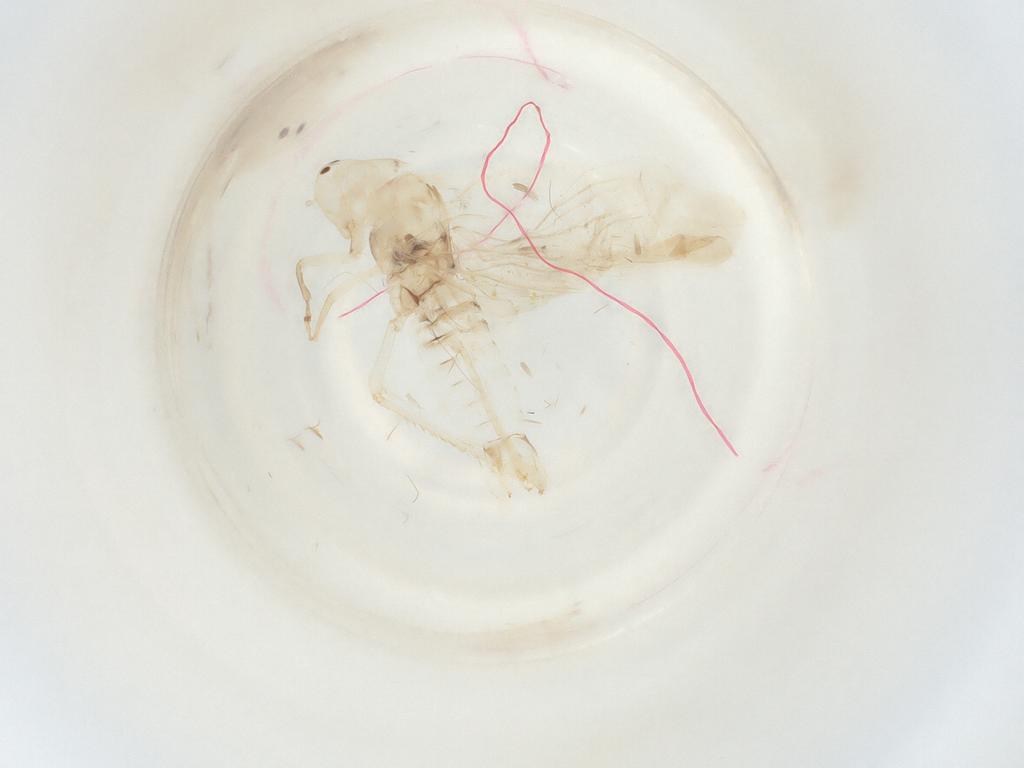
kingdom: Animalia
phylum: Arthropoda
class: Insecta
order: Hemiptera
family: Cicadellidae
